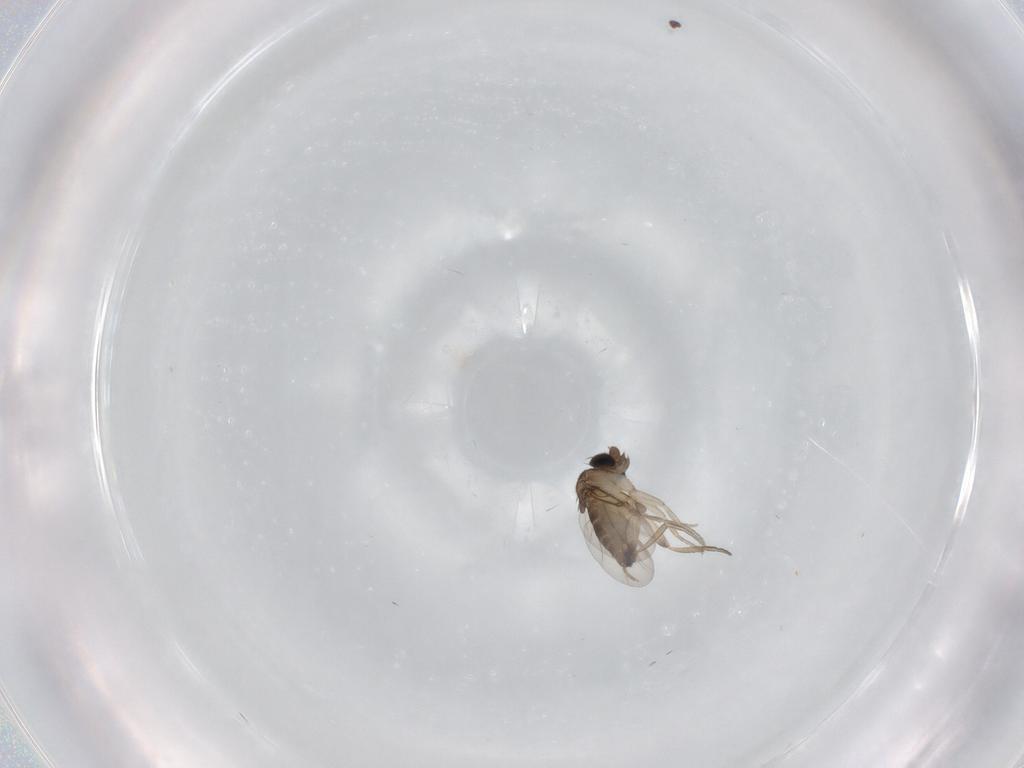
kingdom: Animalia
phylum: Arthropoda
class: Insecta
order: Diptera
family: Phoridae
